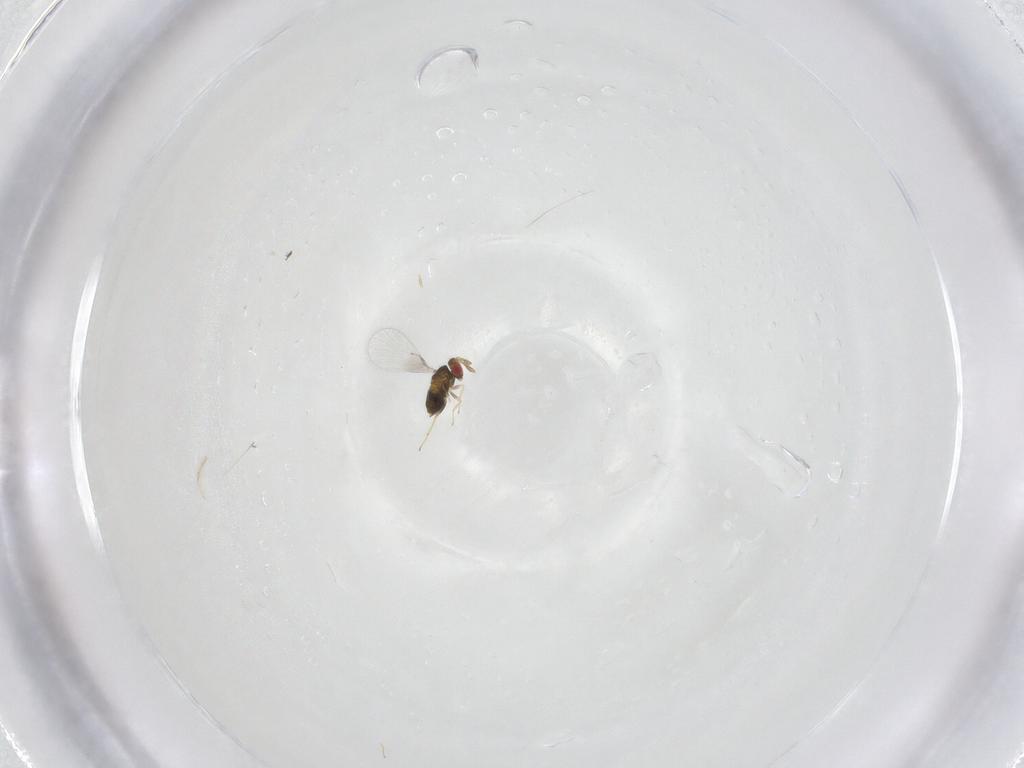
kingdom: Animalia
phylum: Arthropoda
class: Insecta
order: Hymenoptera
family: Trichogrammatidae
